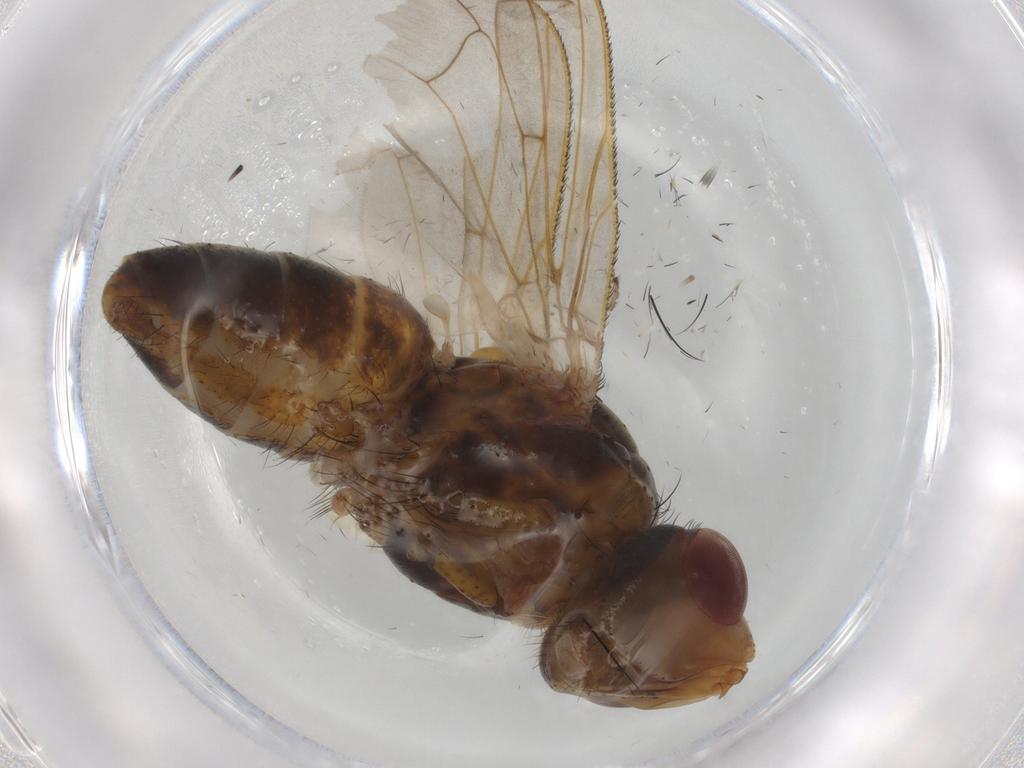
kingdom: Animalia
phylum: Arthropoda
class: Insecta
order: Diptera
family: Tachinidae
